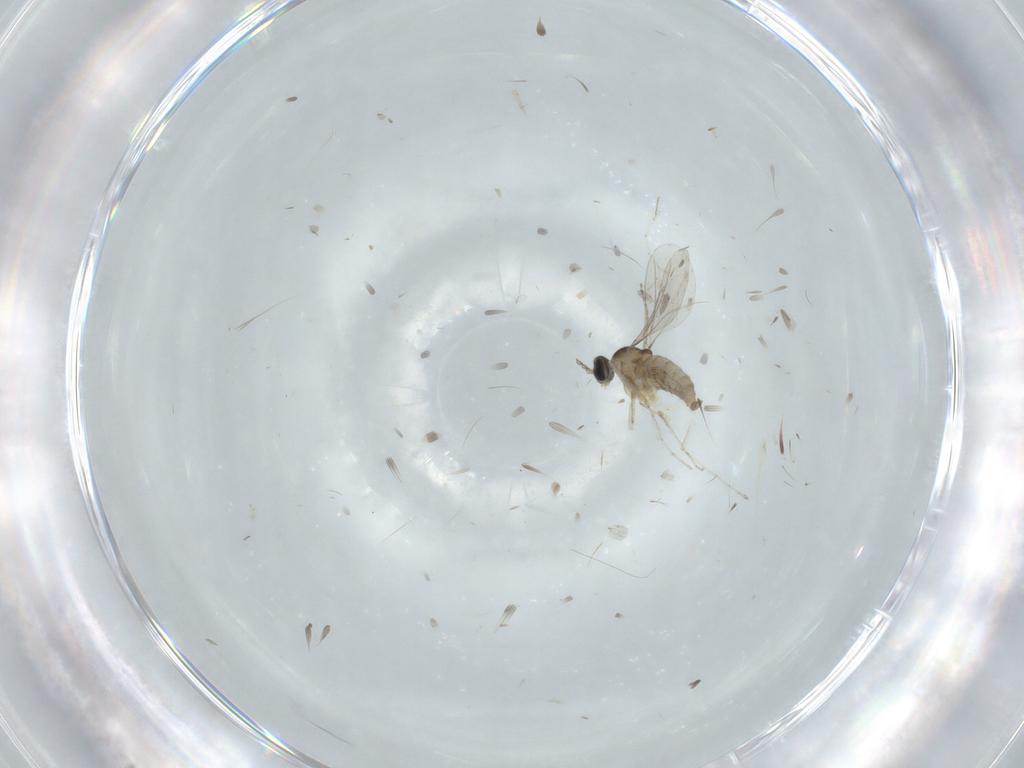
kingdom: Animalia
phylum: Arthropoda
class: Insecta
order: Diptera
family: Cecidomyiidae
